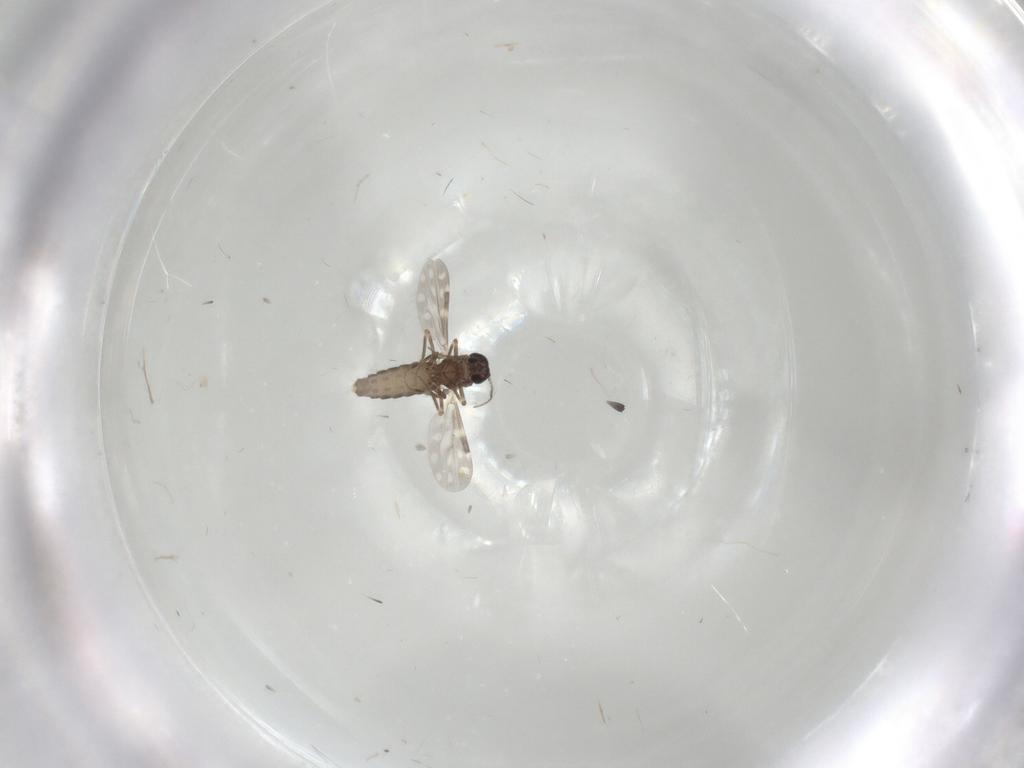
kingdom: Animalia
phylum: Arthropoda
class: Insecta
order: Diptera
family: Ceratopogonidae
